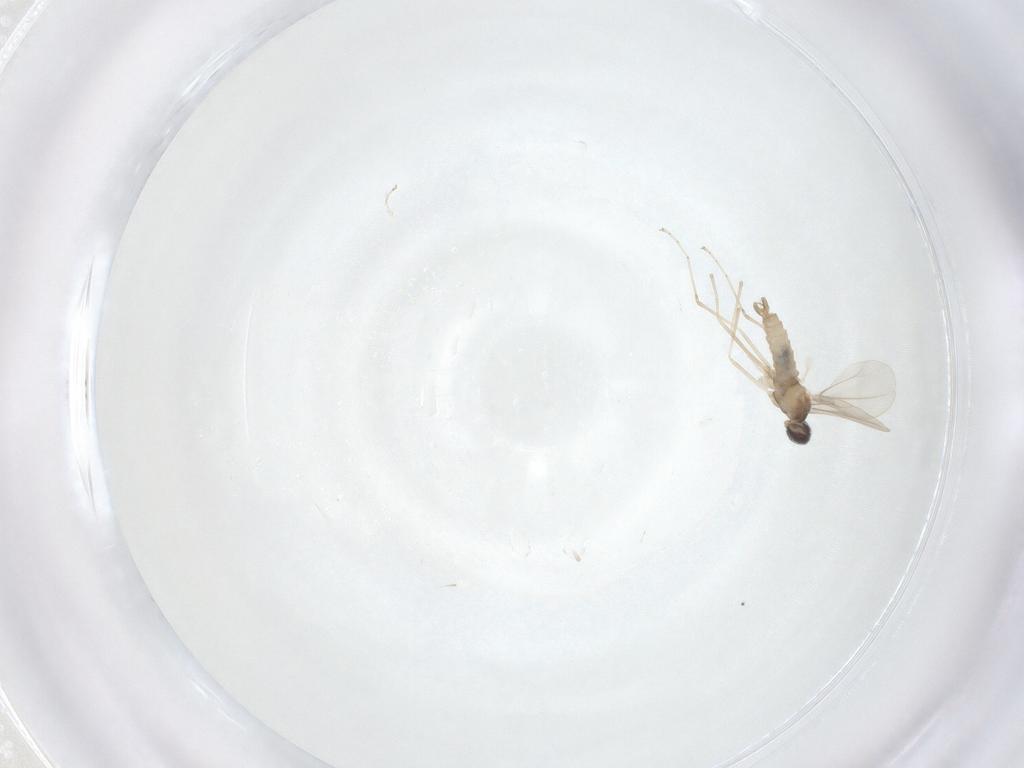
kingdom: Animalia
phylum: Arthropoda
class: Insecta
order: Diptera
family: Cecidomyiidae
